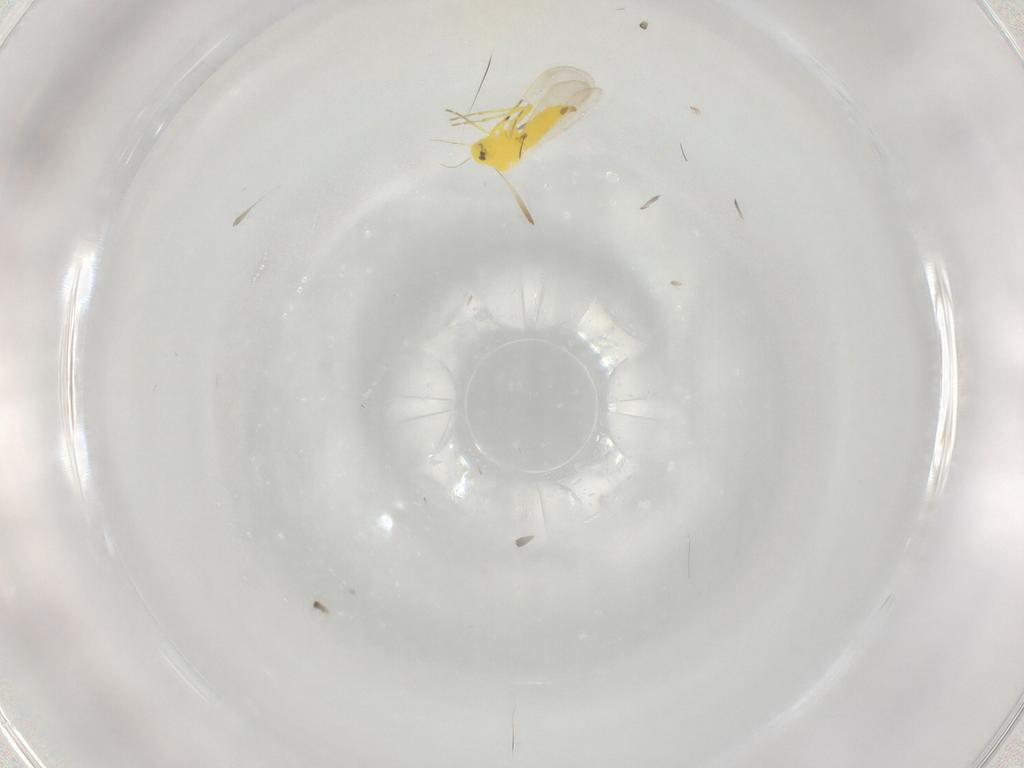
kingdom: Animalia
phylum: Arthropoda
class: Insecta
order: Hemiptera
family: Aleyrodidae
